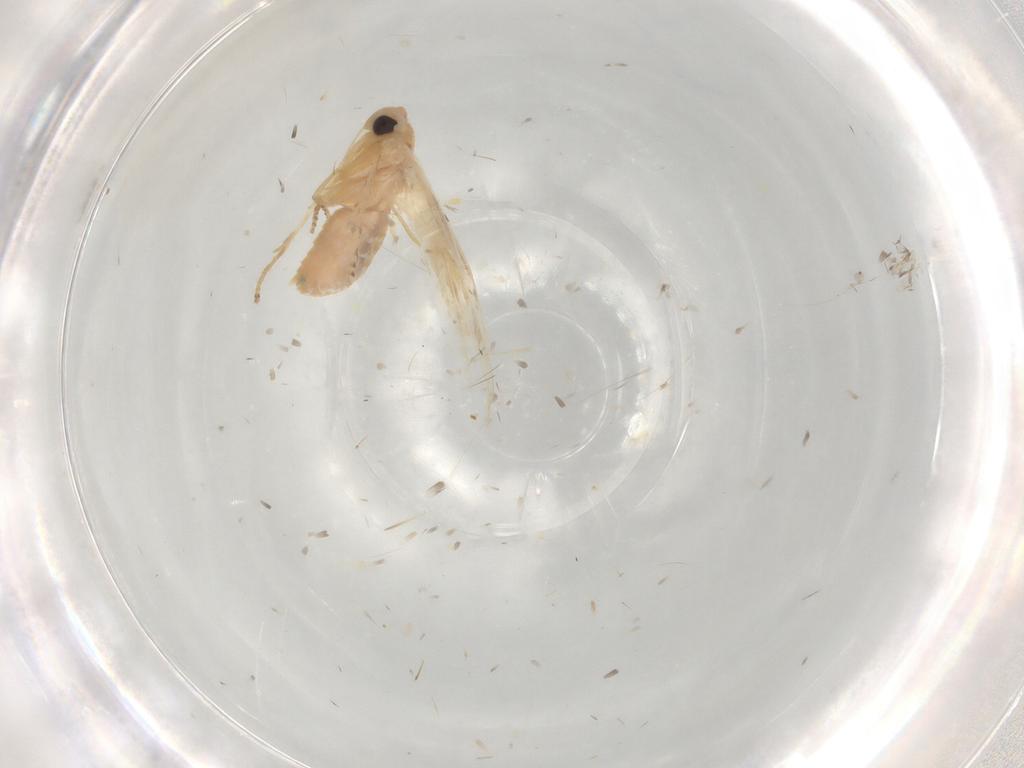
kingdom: Animalia
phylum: Arthropoda
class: Insecta
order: Lepidoptera
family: Depressariidae
